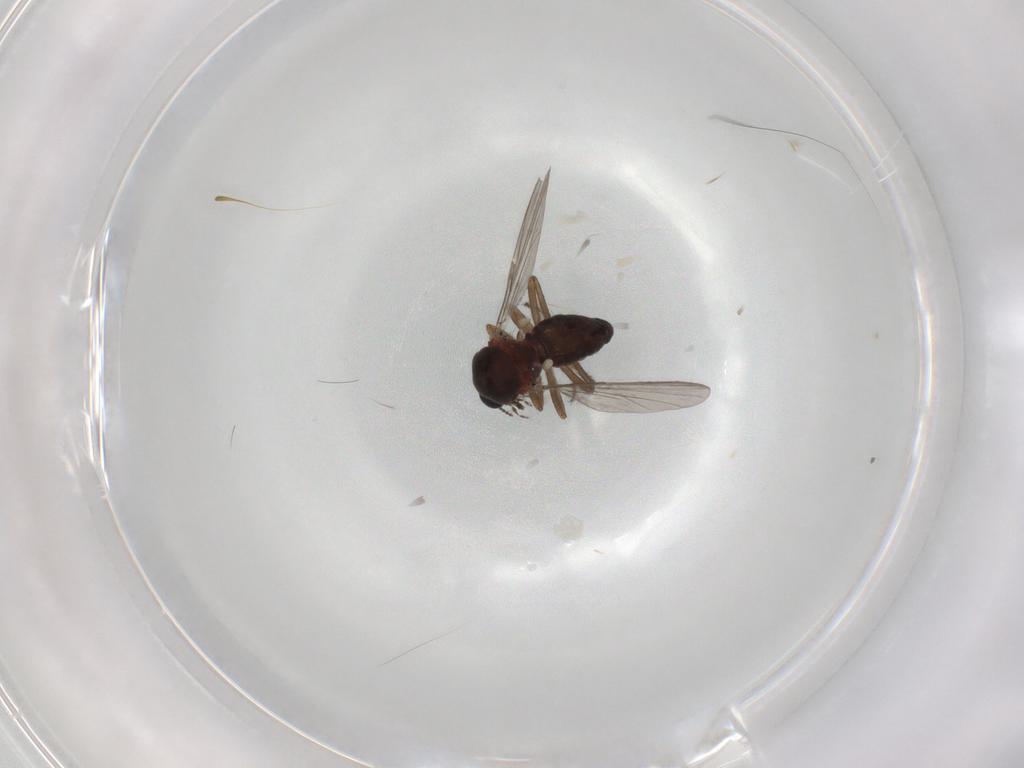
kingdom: Animalia
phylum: Arthropoda
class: Insecta
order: Diptera
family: Ceratopogonidae
